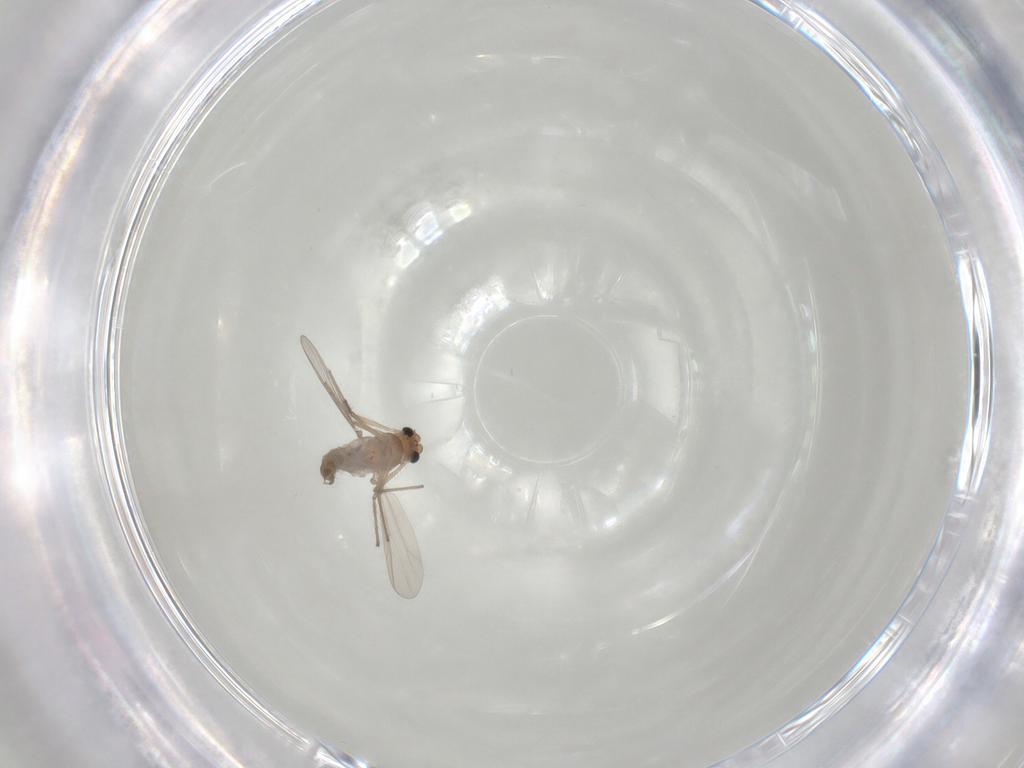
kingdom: Animalia
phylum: Arthropoda
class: Insecta
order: Diptera
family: Chironomidae
